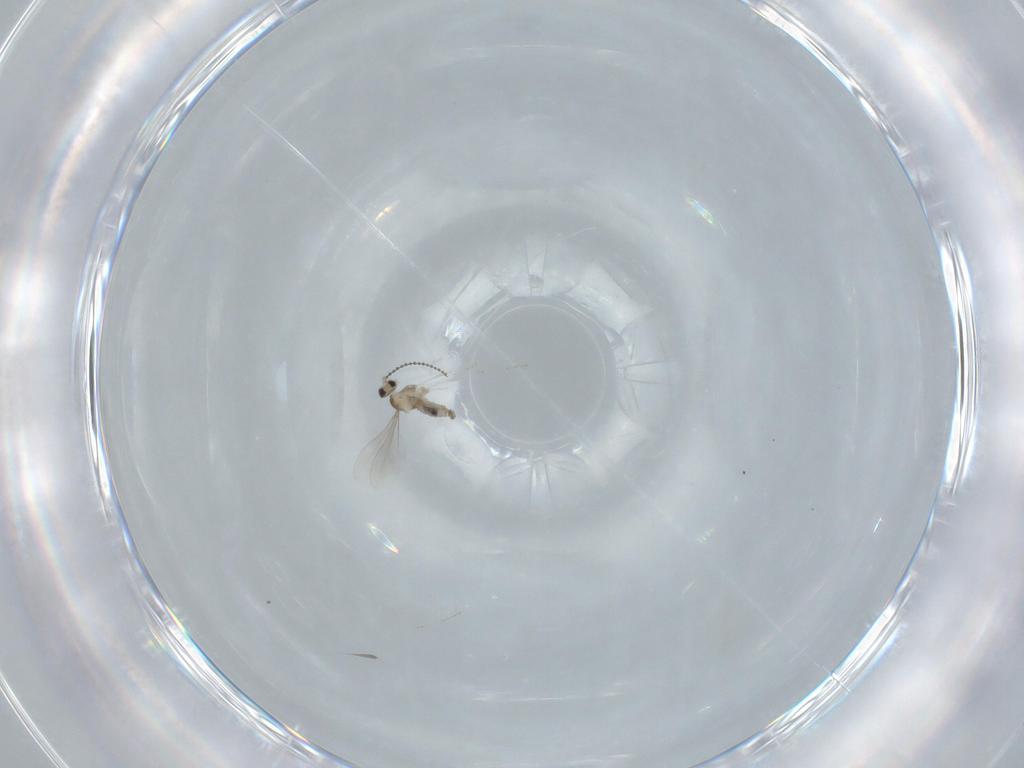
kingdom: Animalia
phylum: Arthropoda
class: Insecta
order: Diptera
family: Cecidomyiidae
